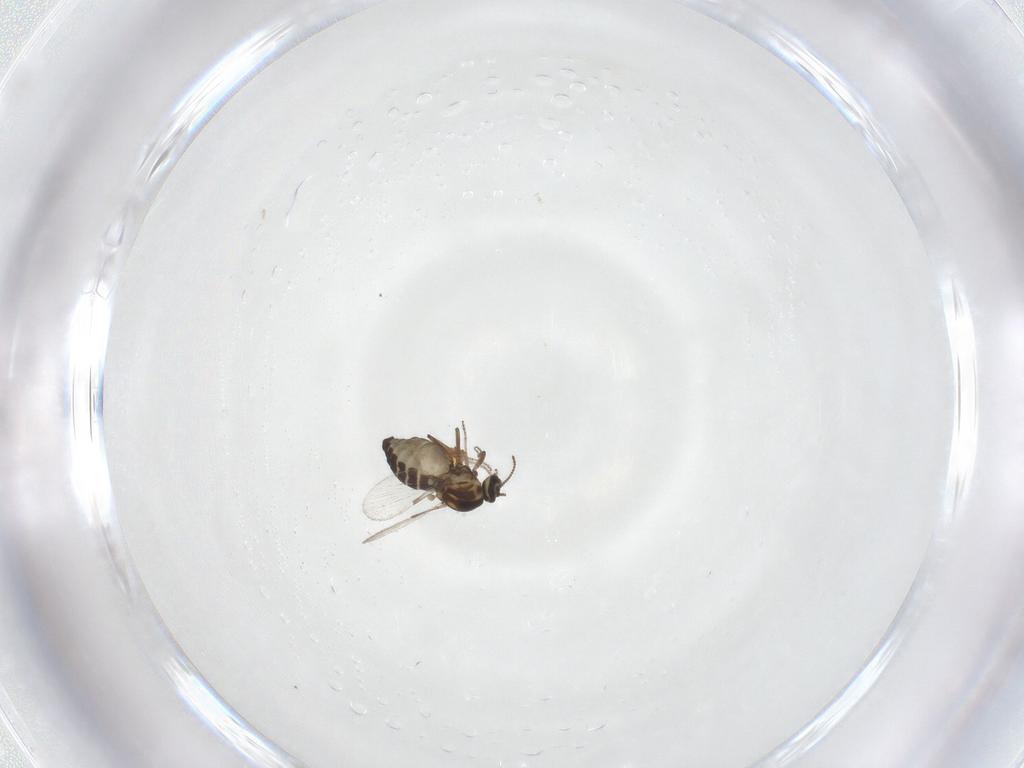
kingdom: Animalia
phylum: Arthropoda
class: Insecta
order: Diptera
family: Ceratopogonidae
